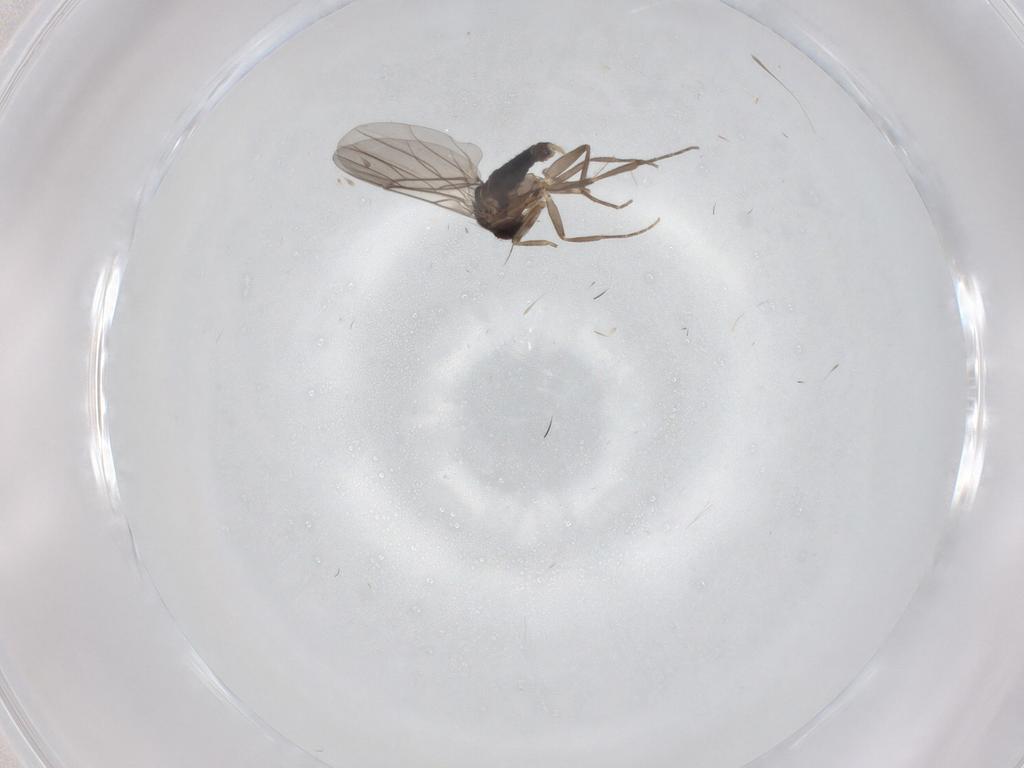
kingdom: Animalia
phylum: Arthropoda
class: Insecta
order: Diptera
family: Phoridae
